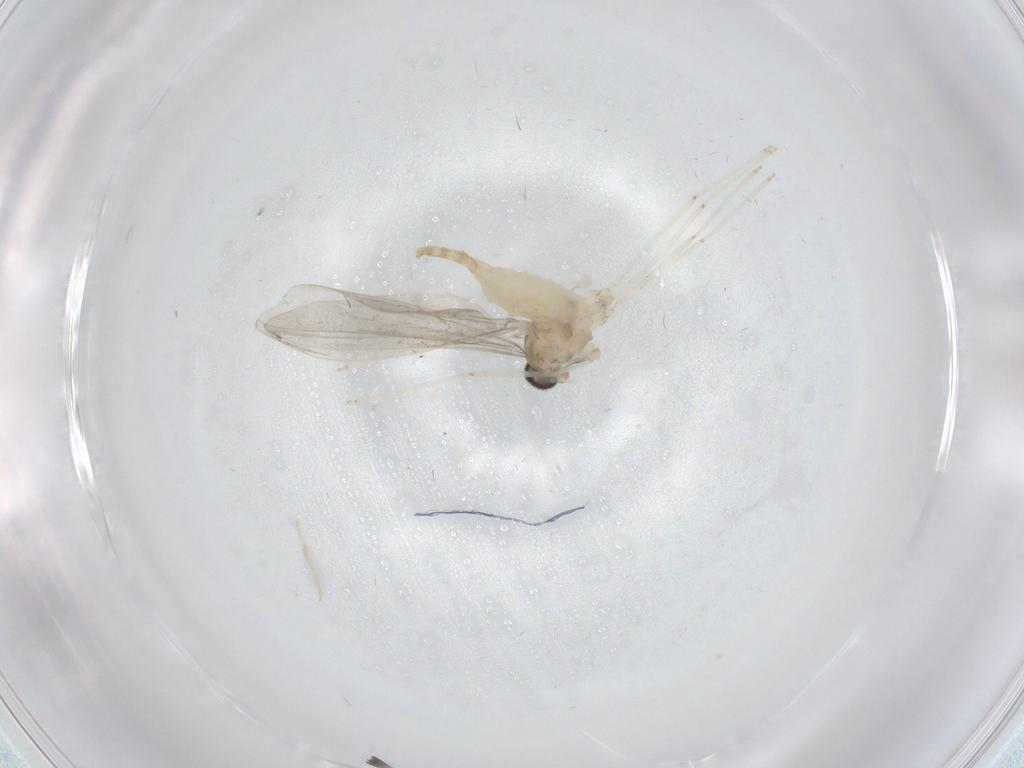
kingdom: Animalia
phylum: Arthropoda
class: Insecta
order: Diptera
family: Cecidomyiidae
